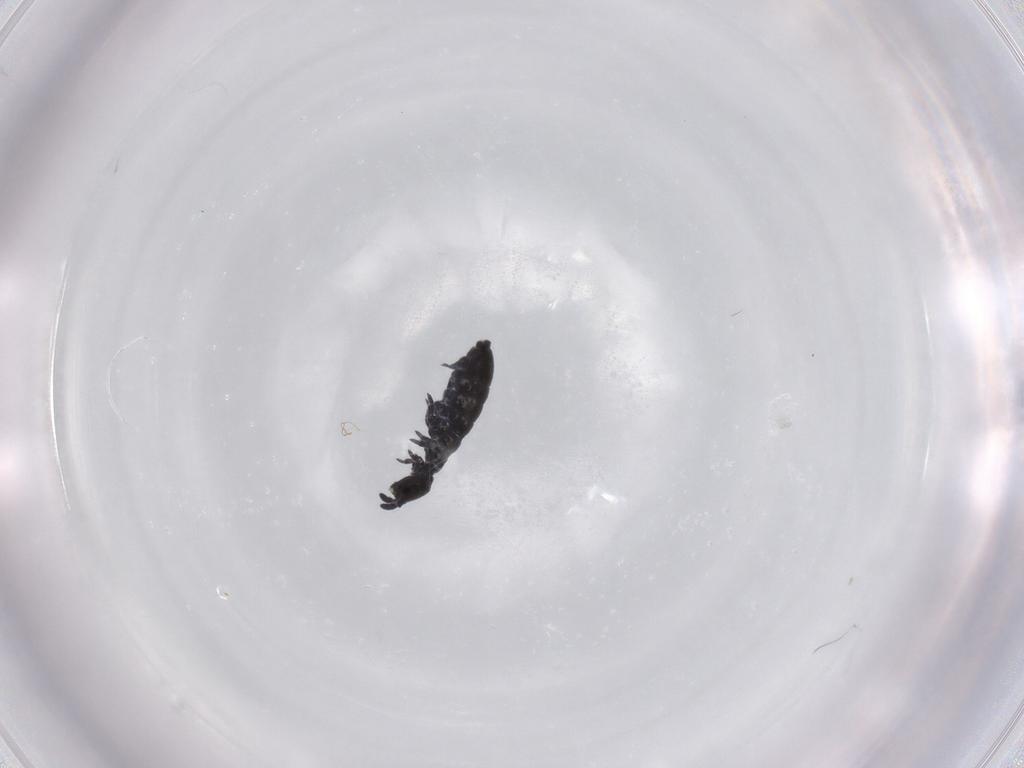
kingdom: Animalia
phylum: Arthropoda
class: Collembola
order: Poduromorpha
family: Hypogastruridae
